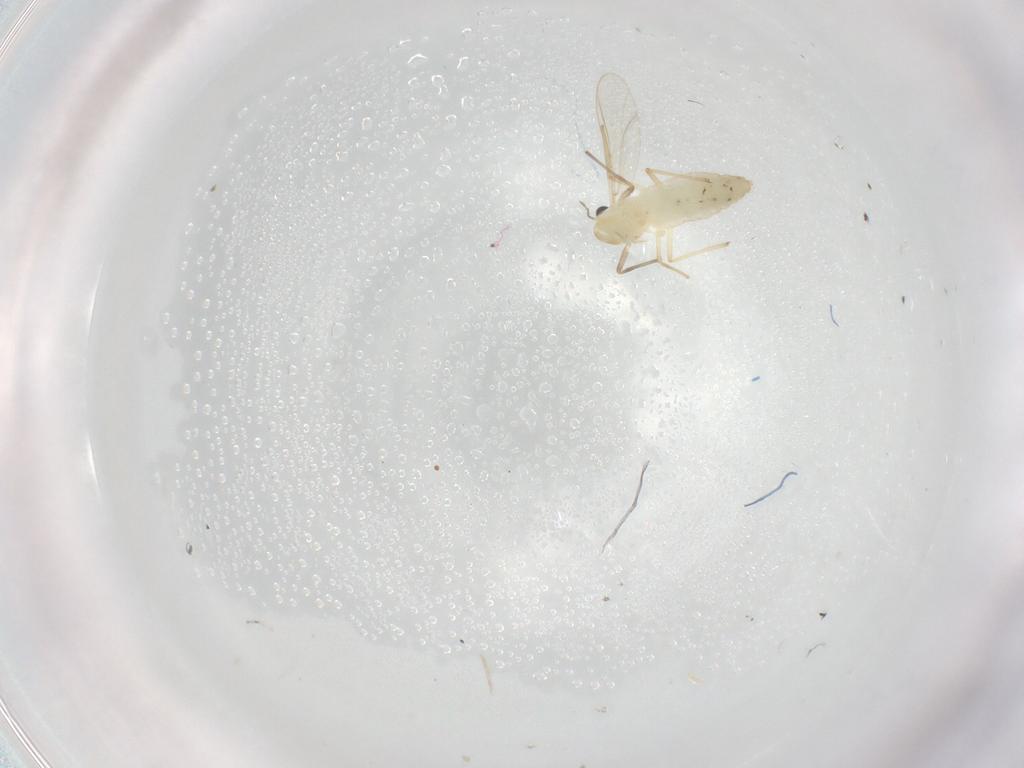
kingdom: Animalia
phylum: Arthropoda
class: Insecta
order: Diptera
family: Chironomidae
